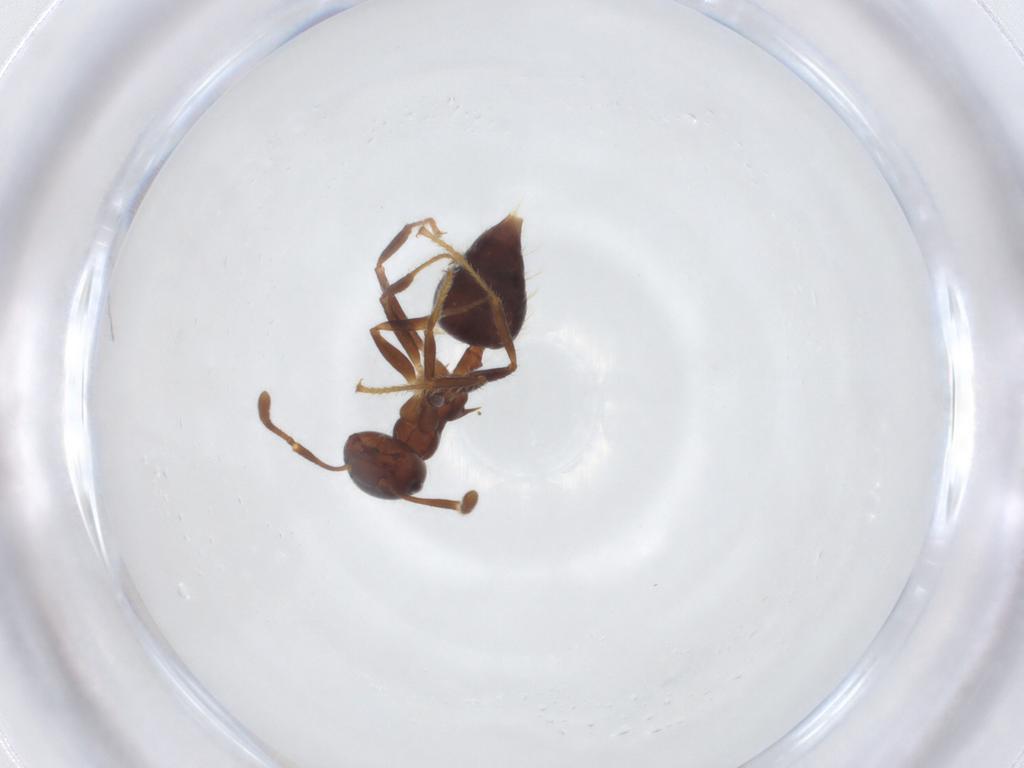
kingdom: Animalia
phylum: Arthropoda
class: Insecta
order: Hymenoptera
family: Formicidae
